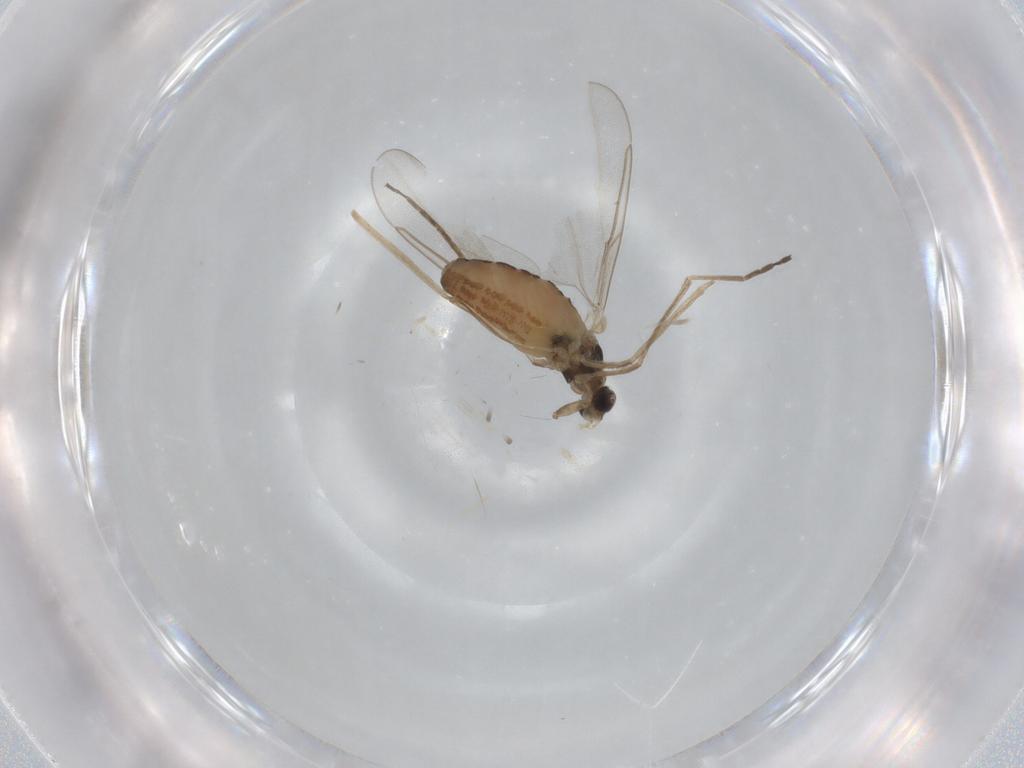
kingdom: Animalia
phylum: Arthropoda
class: Insecta
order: Diptera
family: Cecidomyiidae
